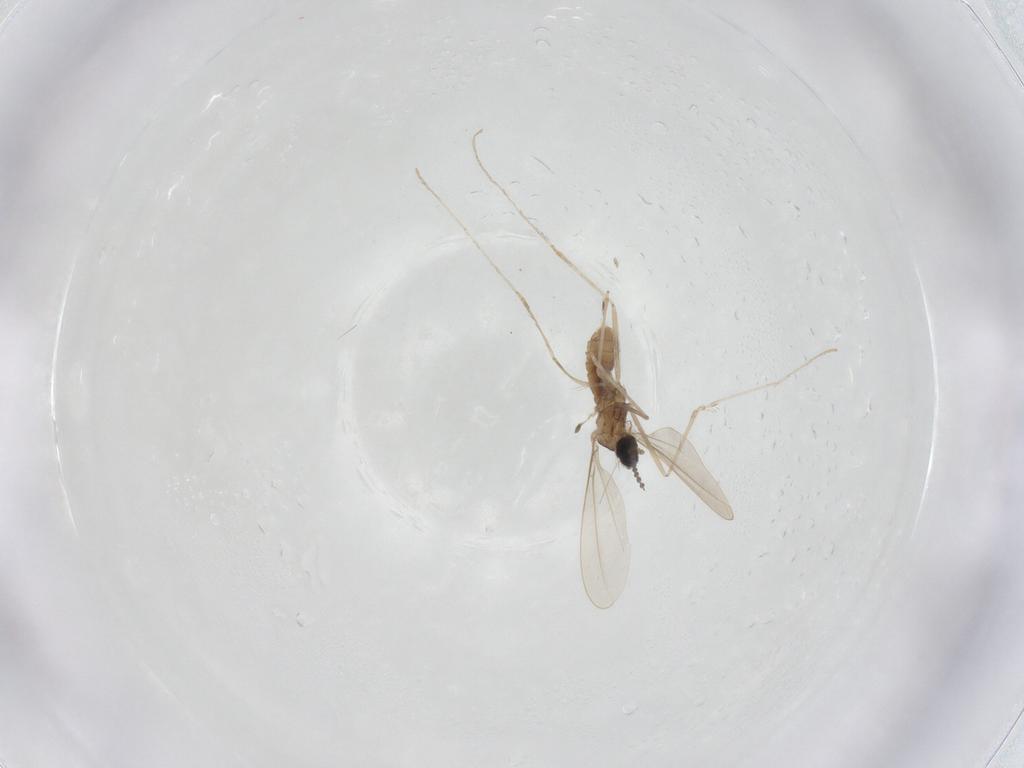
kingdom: Animalia
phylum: Arthropoda
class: Insecta
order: Diptera
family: Cecidomyiidae
